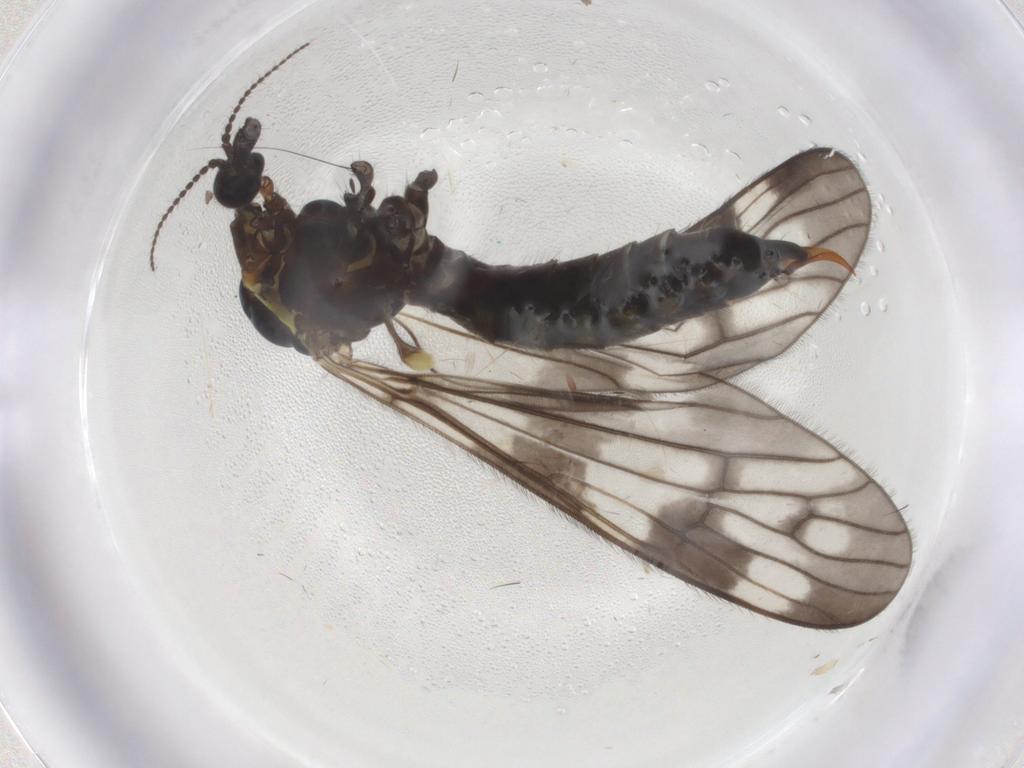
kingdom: Animalia
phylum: Arthropoda
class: Insecta
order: Diptera
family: Limoniidae
